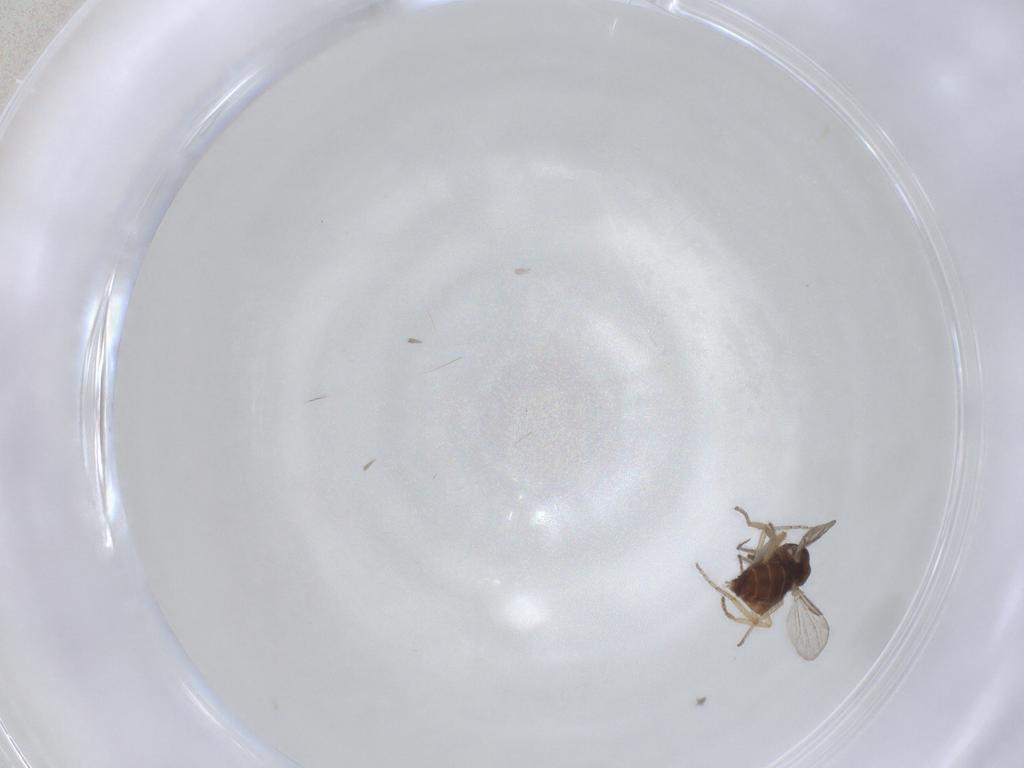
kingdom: Animalia
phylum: Arthropoda
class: Insecta
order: Diptera
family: Ceratopogonidae
